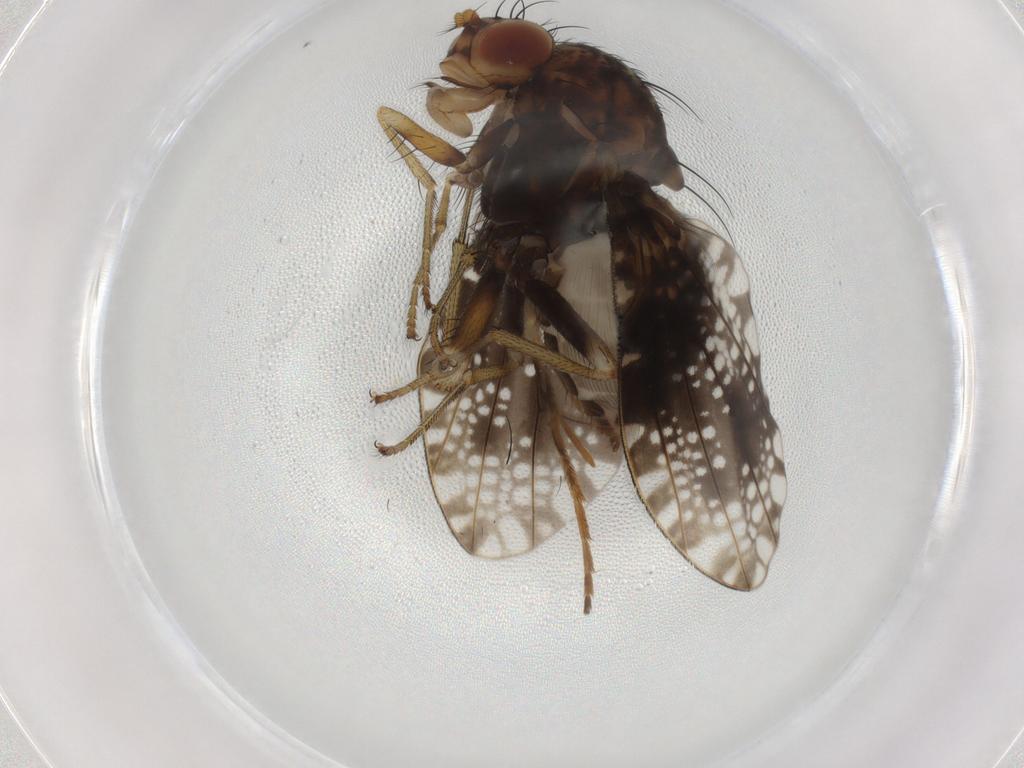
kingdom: Animalia
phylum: Arthropoda
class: Insecta
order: Diptera
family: Lauxaniidae
